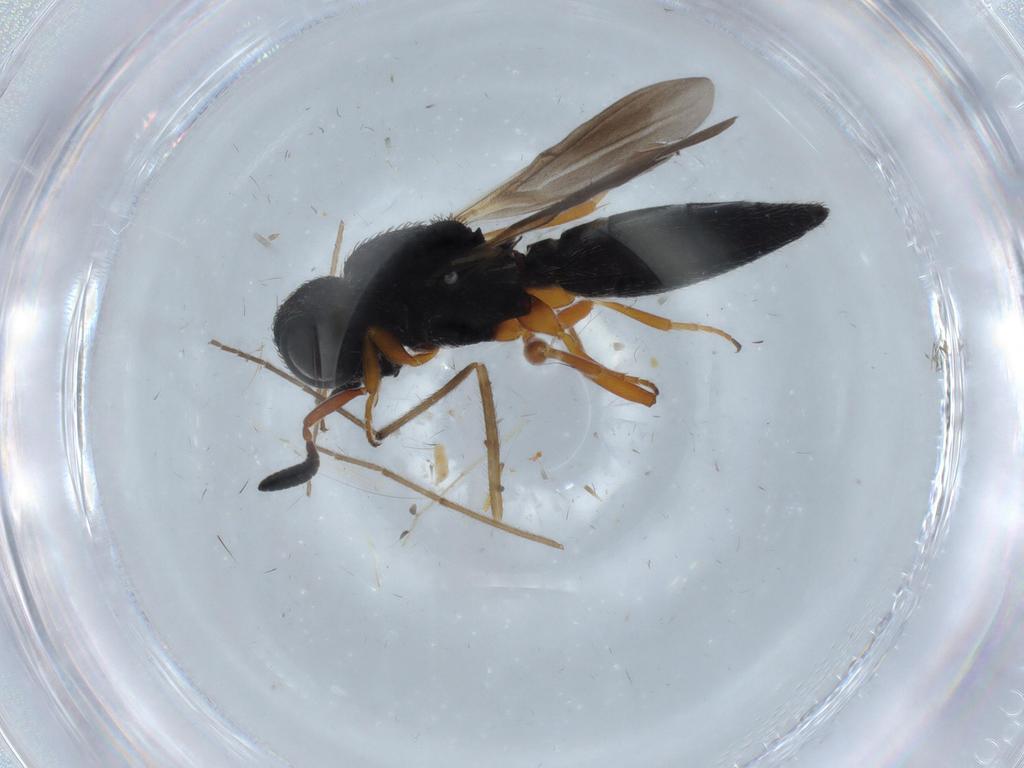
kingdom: Animalia
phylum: Arthropoda
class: Insecta
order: Hymenoptera
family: Scelionidae
